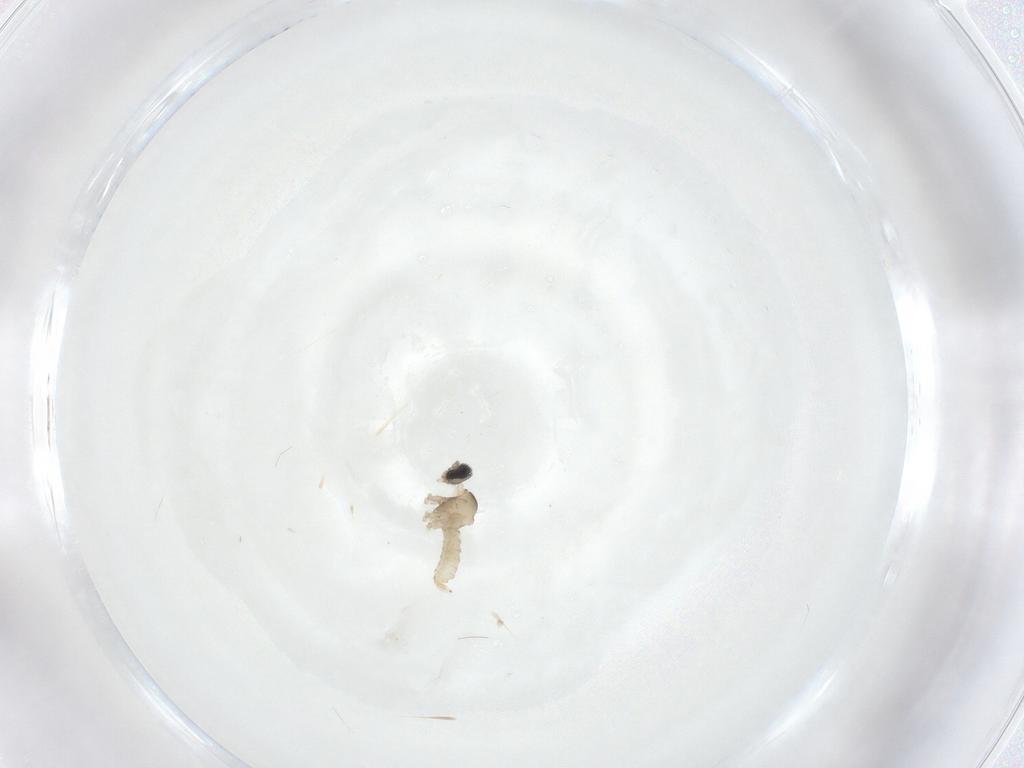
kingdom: Animalia
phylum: Arthropoda
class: Insecta
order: Diptera
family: Cecidomyiidae
